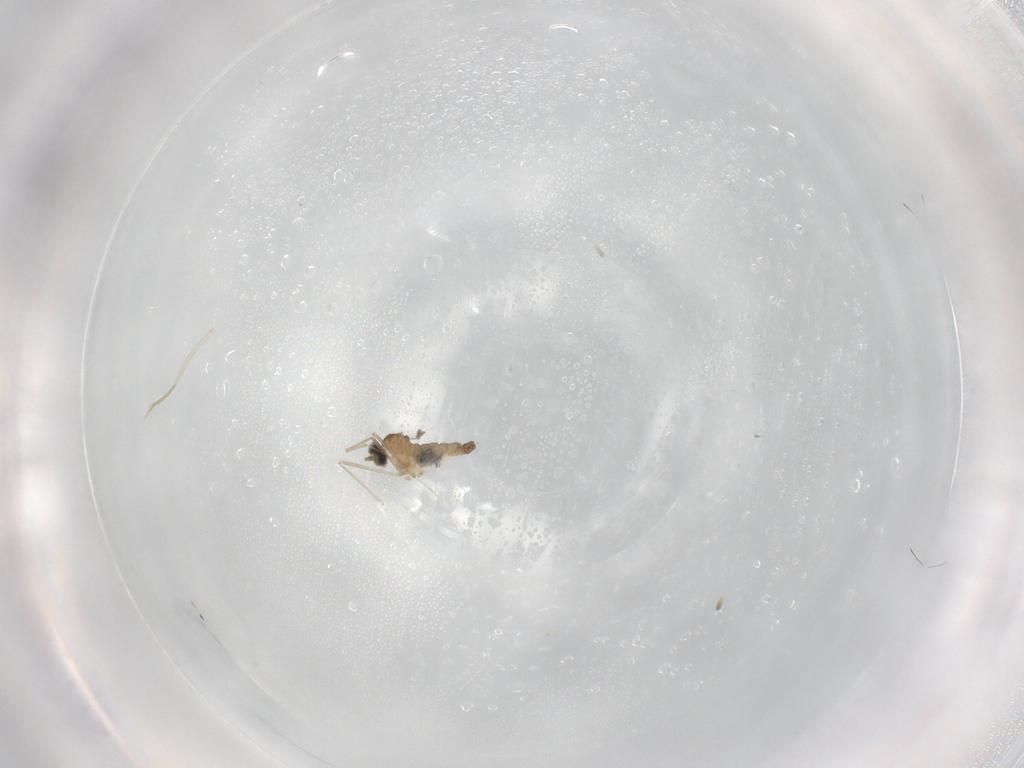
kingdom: Animalia
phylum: Arthropoda
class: Insecta
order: Diptera
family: Cecidomyiidae
